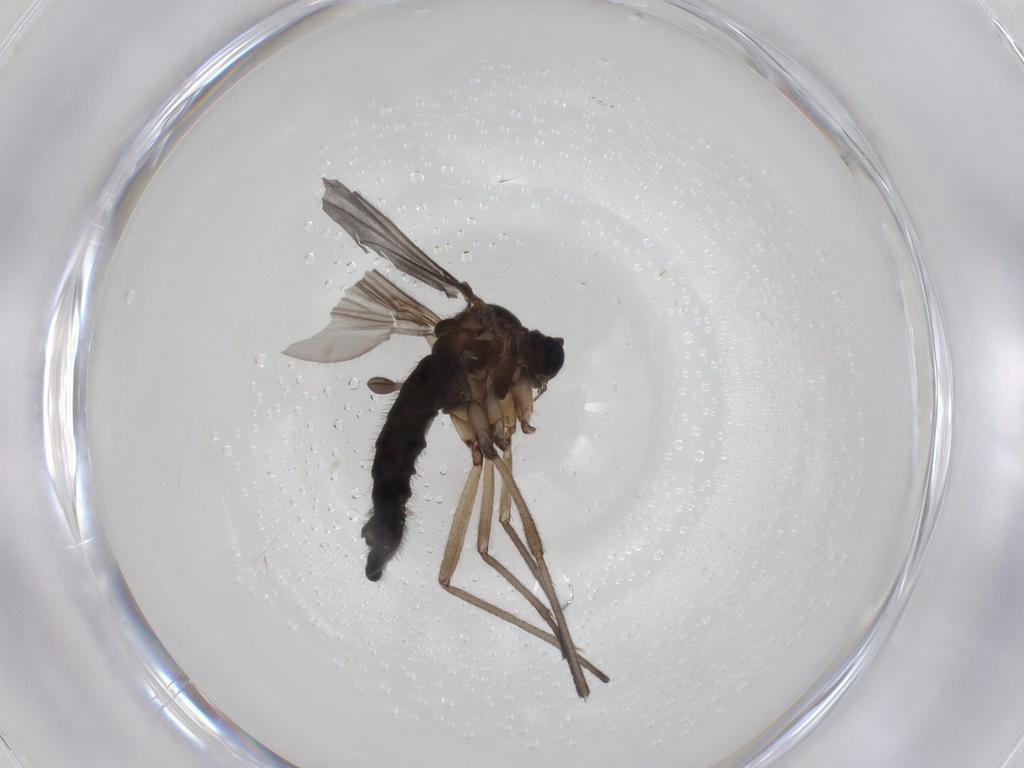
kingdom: Animalia
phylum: Arthropoda
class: Insecta
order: Diptera
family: Sciaridae
